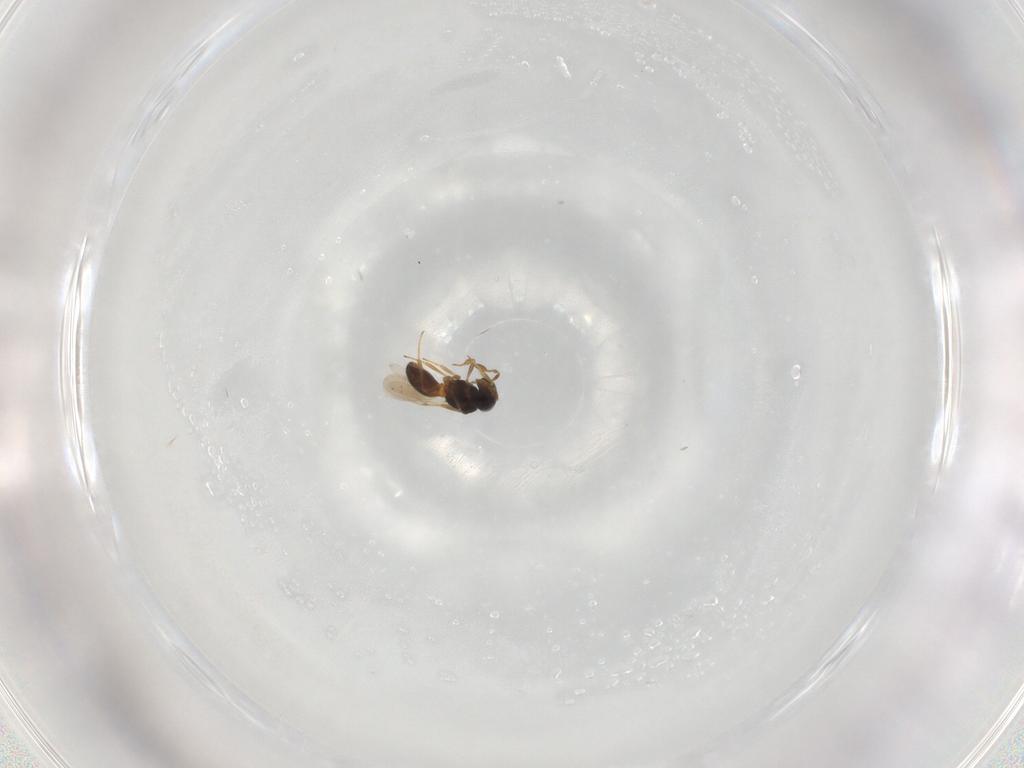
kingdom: Animalia
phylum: Arthropoda
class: Insecta
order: Hymenoptera
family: Scelionidae
